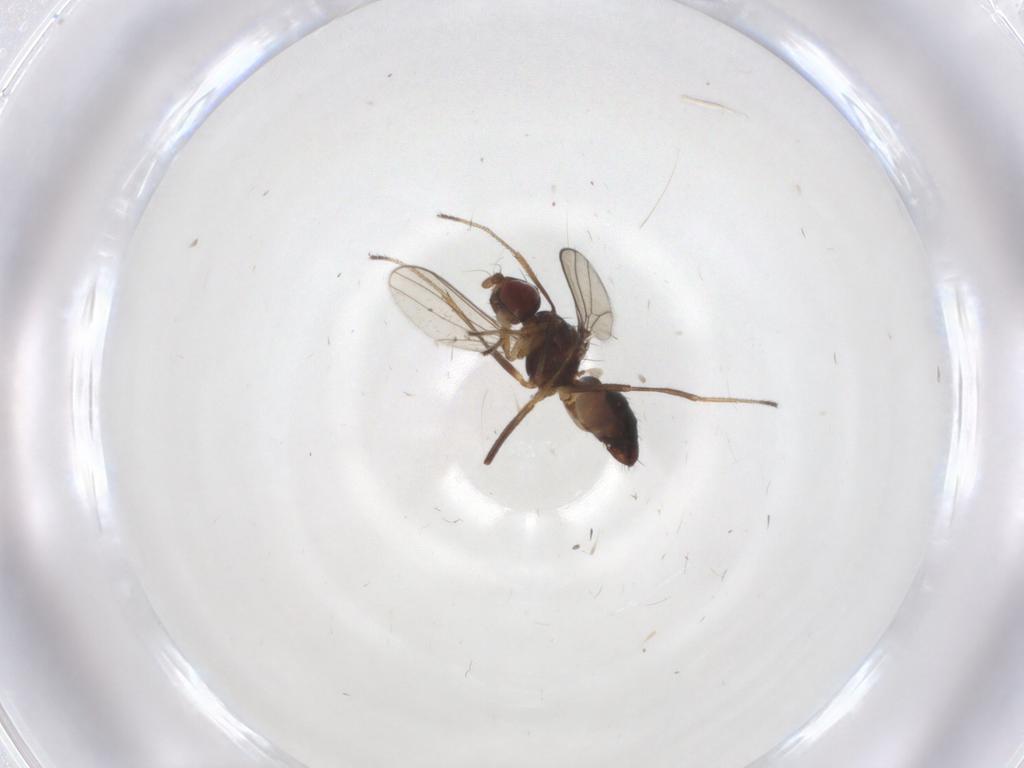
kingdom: Animalia
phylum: Arthropoda
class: Insecta
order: Diptera
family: Sepsidae
